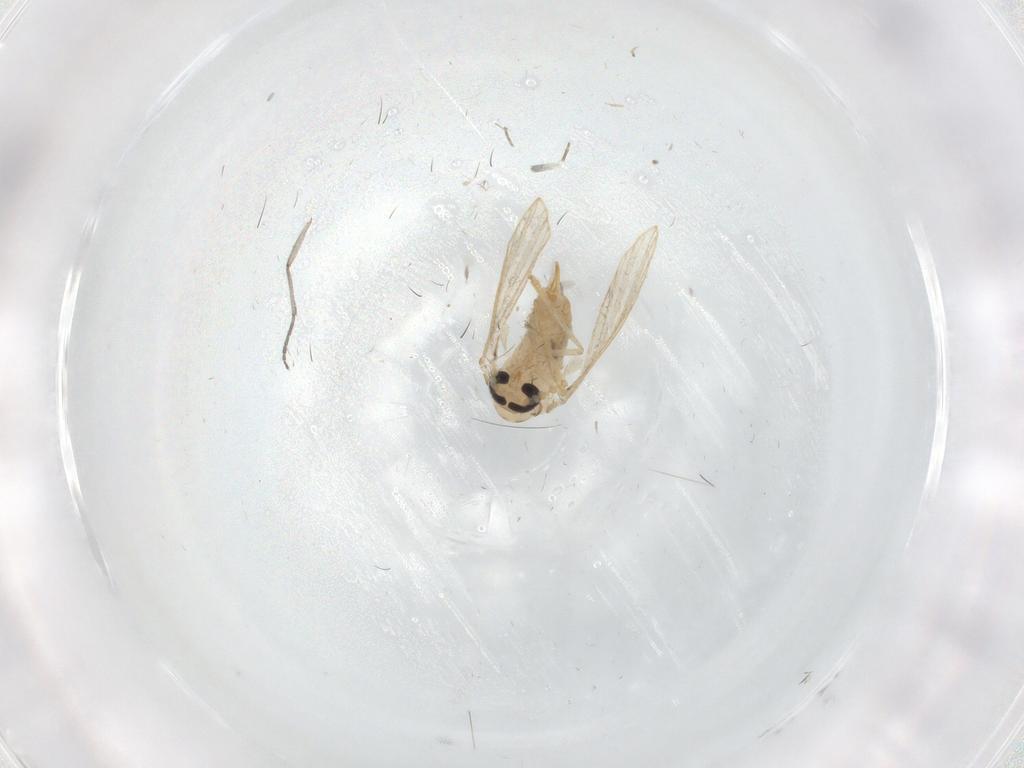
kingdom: Animalia
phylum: Arthropoda
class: Insecta
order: Diptera
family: Psychodidae
